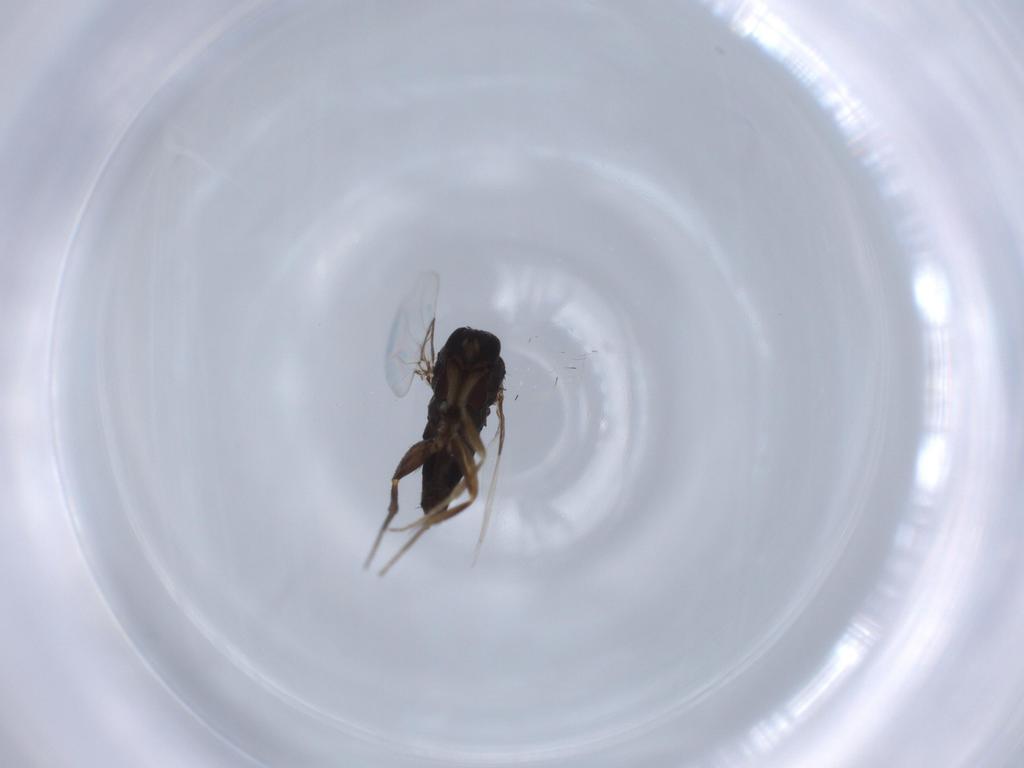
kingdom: Animalia
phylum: Arthropoda
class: Insecta
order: Diptera
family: Phoridae
